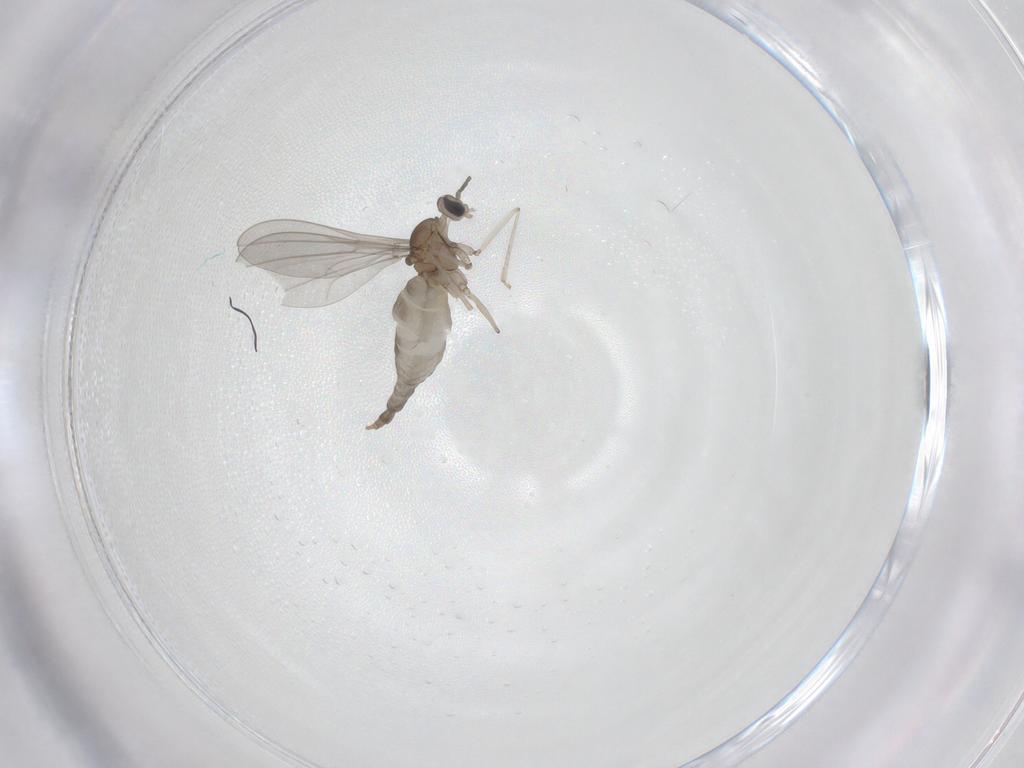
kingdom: Animalia
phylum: Arthropoda
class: Insecta
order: Diptera
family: Cecidomyiidae
